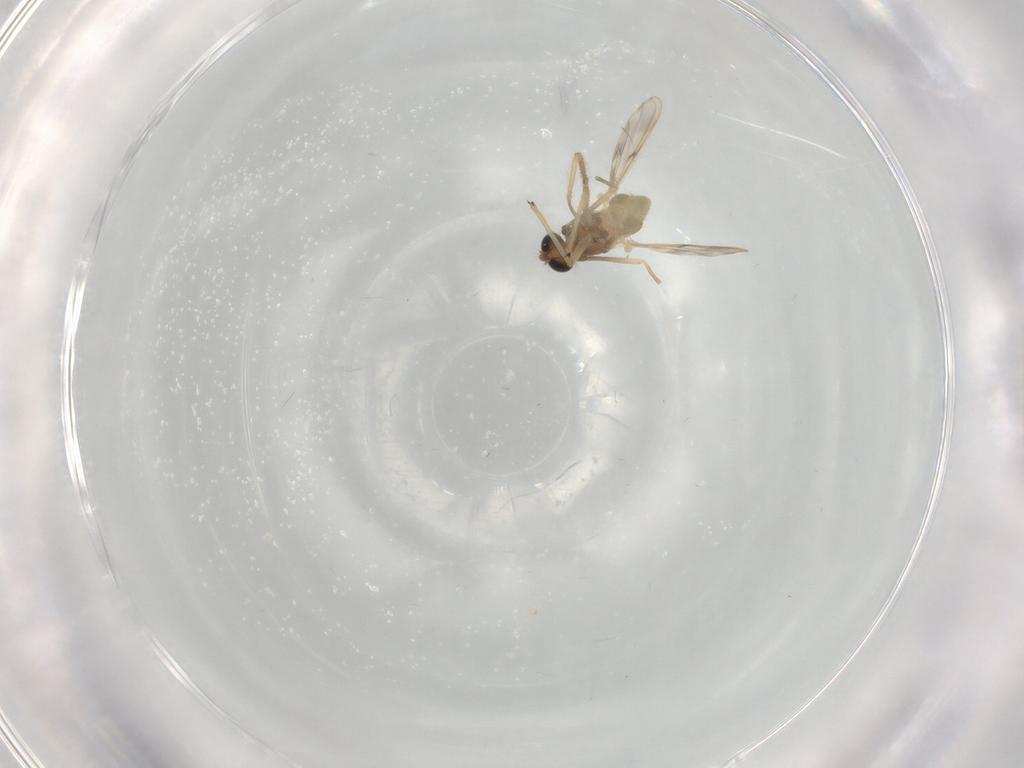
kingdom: Animalia
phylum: Arthropoda
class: Insecta
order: Diptera
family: Chironomidae
